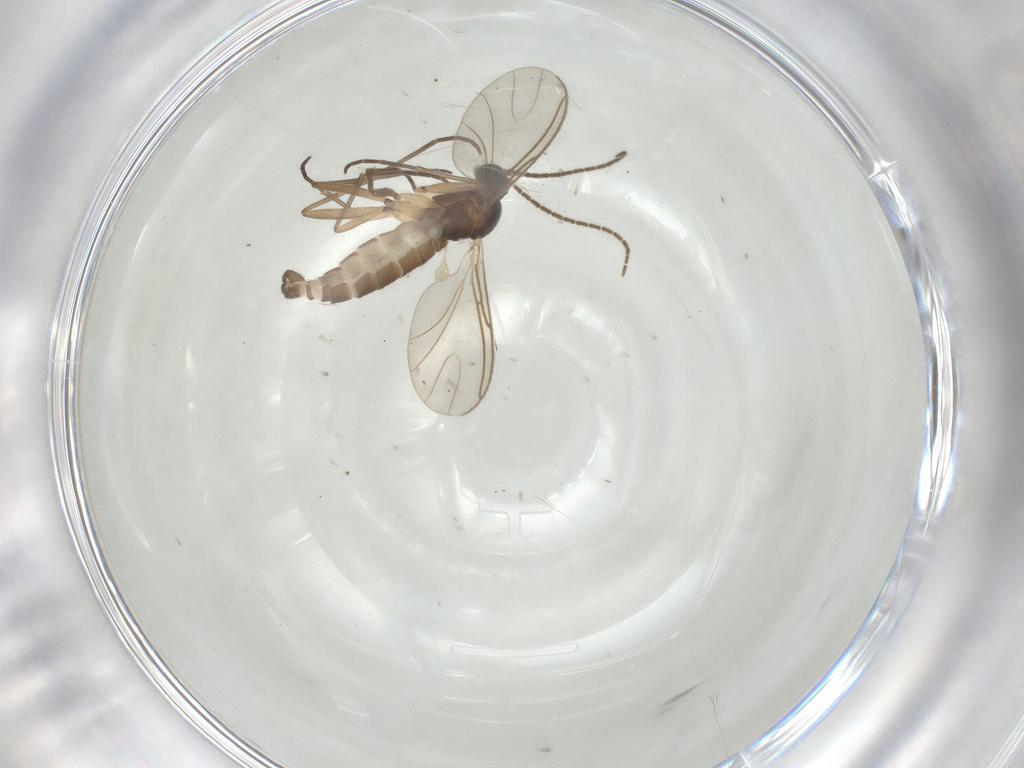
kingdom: Animalia
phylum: Arthropoda
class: Insecta
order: Diptera
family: Sciaridae
